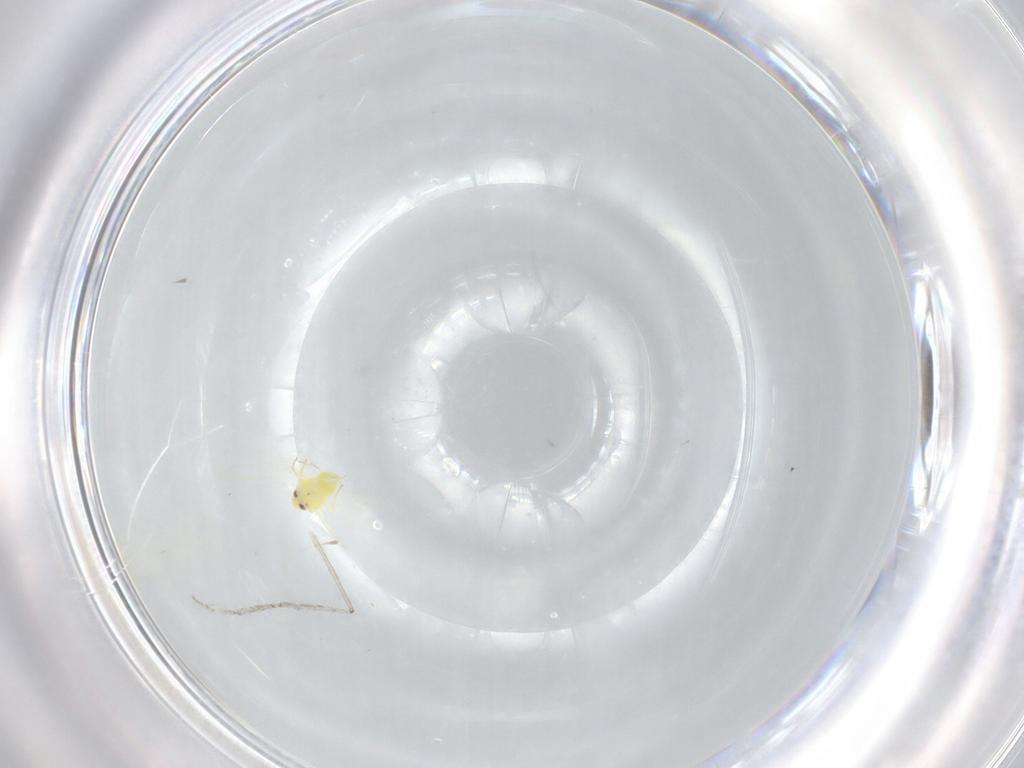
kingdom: Animalia
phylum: Arthropoda
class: Insecta
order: Hemiptera
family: Aleyrodidae
